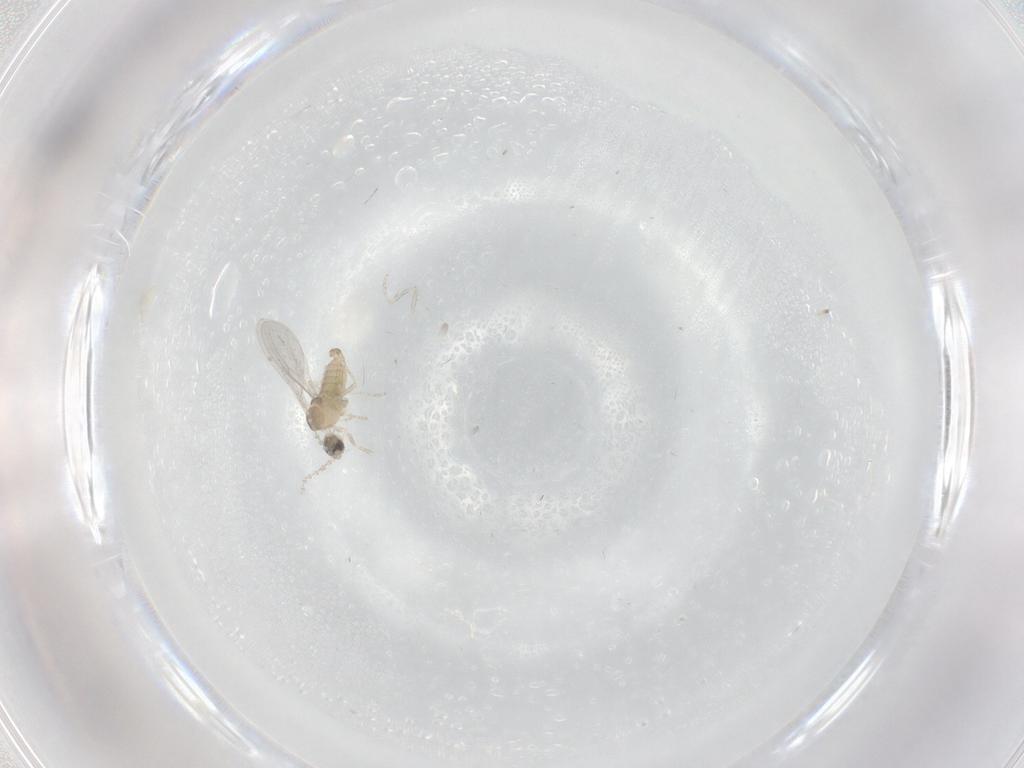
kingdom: Animalia
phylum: Arthropoda
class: Insecta
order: Diptera
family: Cecidomyiidae
